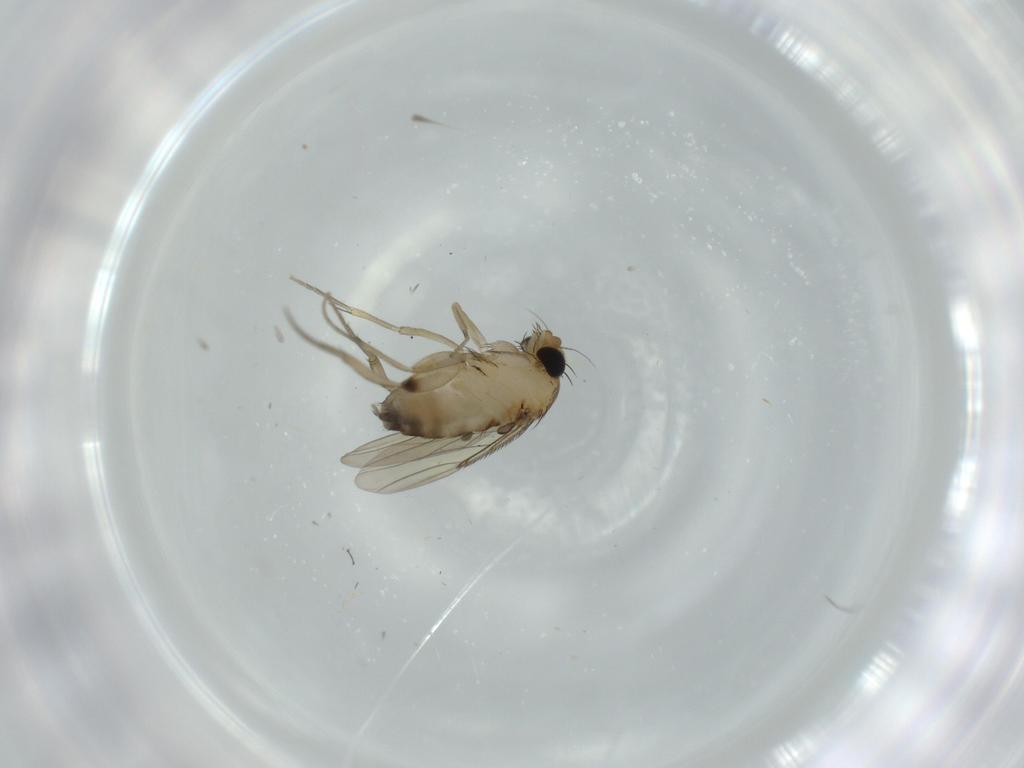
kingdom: Animalia
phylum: Arthropoda
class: Insecta
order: Diptera
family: Phoridae
